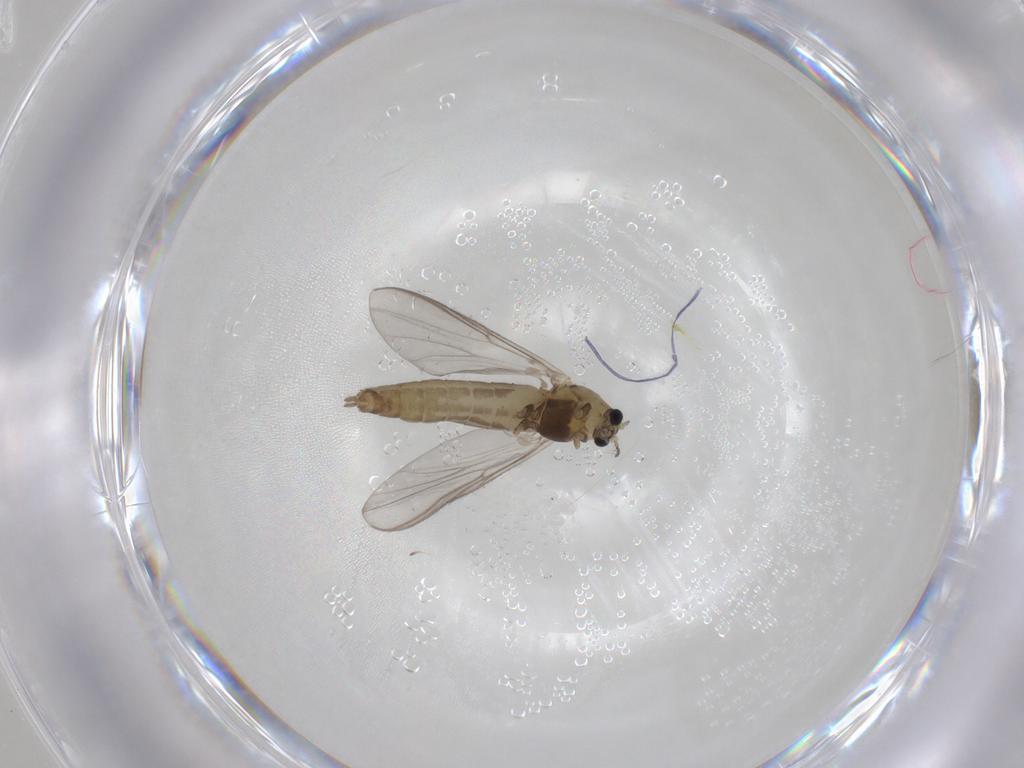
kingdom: Animalia
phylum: Arthropoda
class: Insecta
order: Diptera
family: Chironomidae
